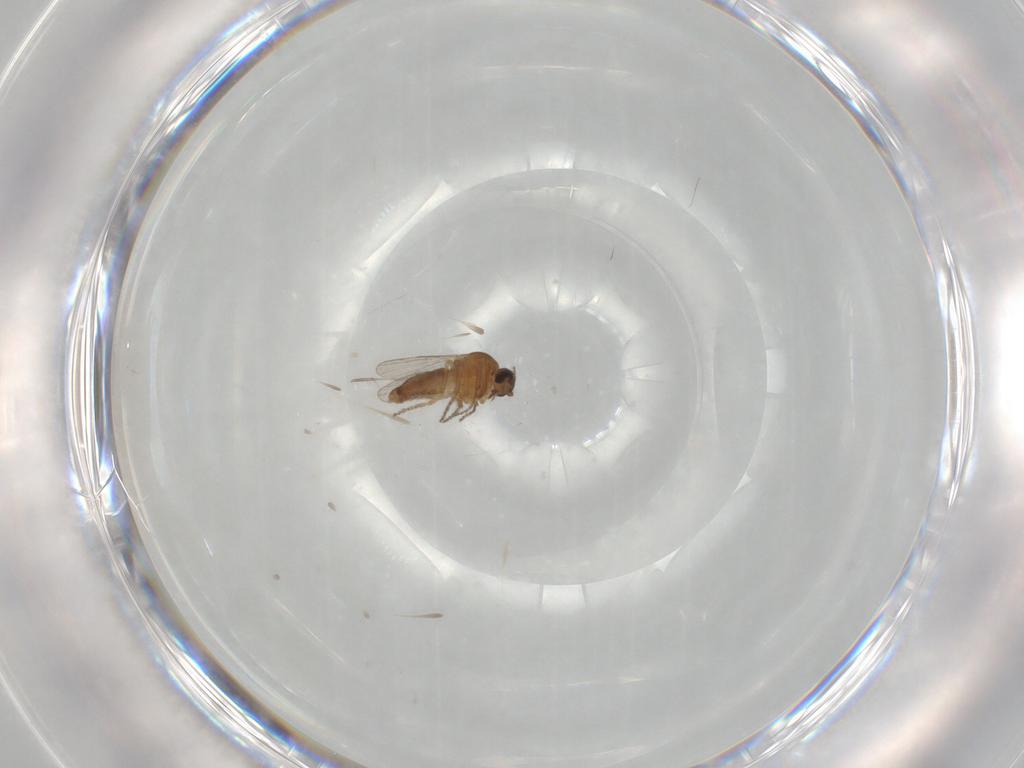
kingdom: Animalia
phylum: Arthropoda
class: Insecta
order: Diptera
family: Ceratopogonidae
